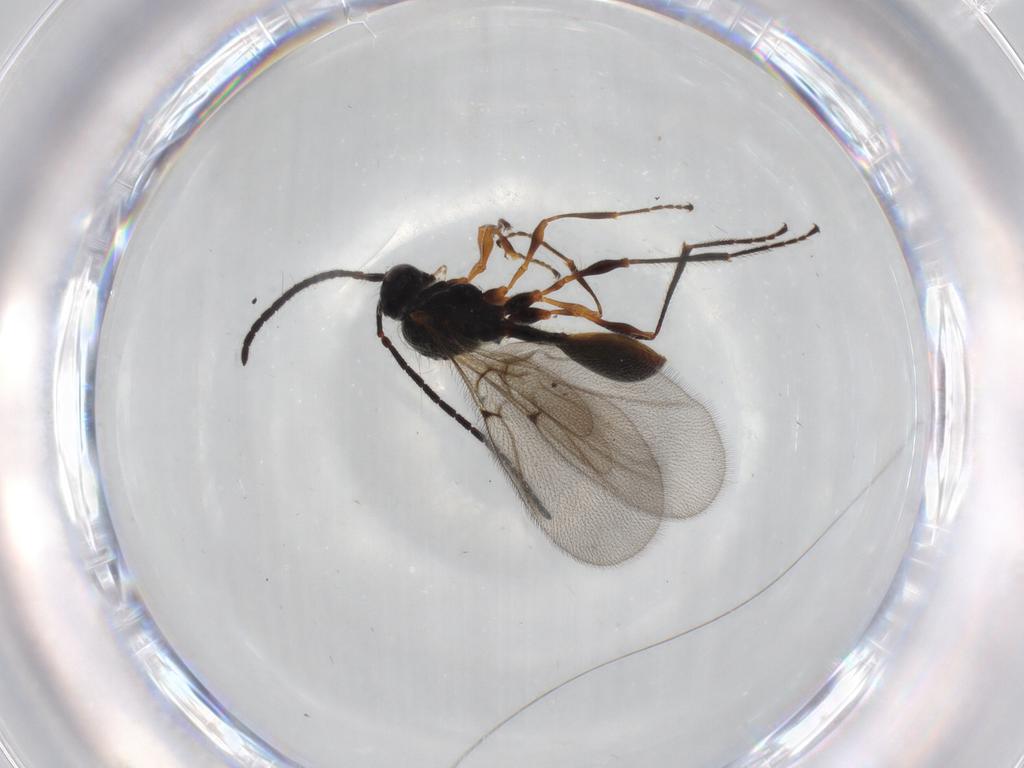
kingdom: Animalia
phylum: Arthropoda
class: Insecta
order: Hymenoptera
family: Diapriidae
